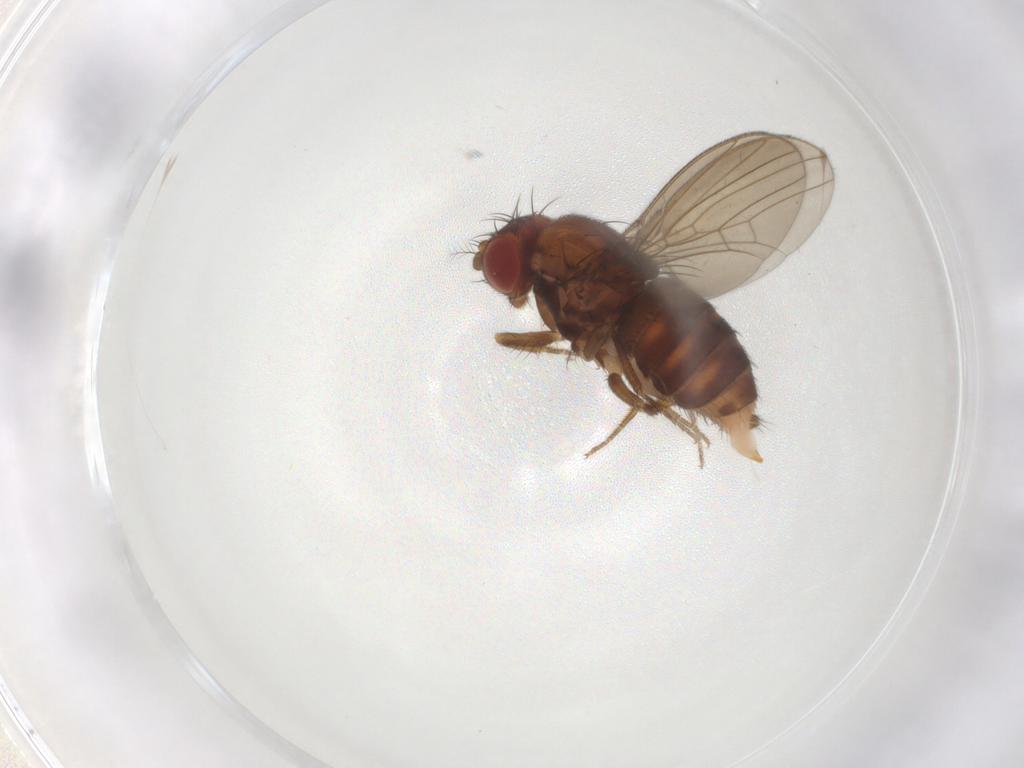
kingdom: Animalia
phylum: Arthropoda
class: Insecta
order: Diptera
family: Drosophilidae
